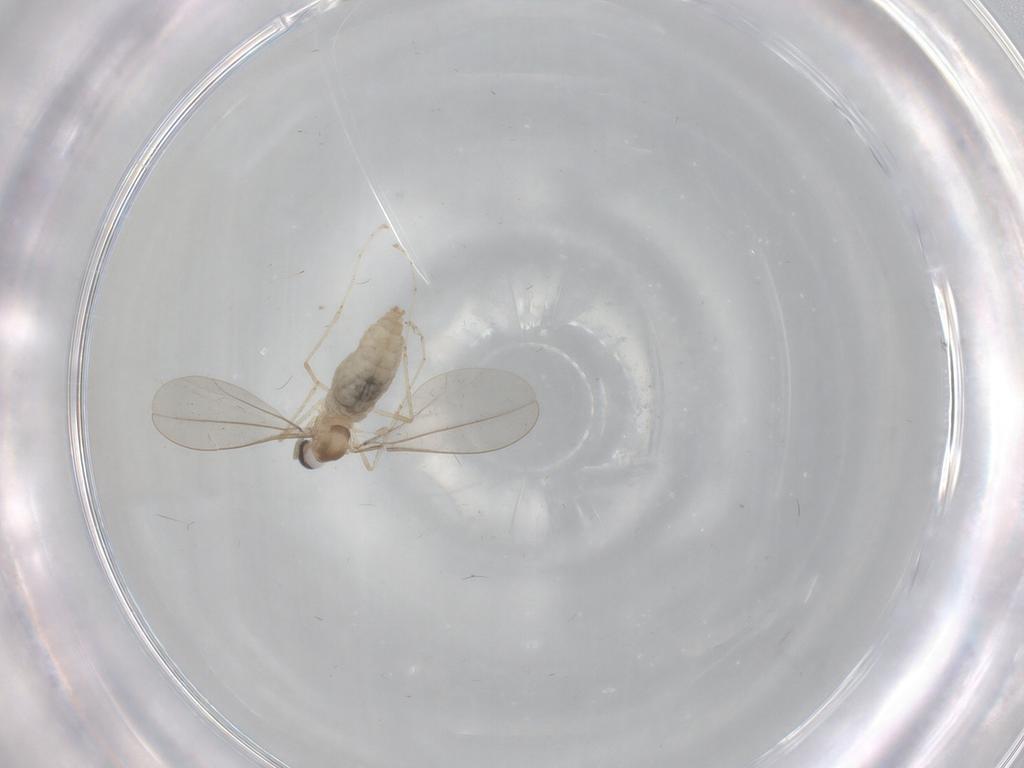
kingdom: Animalia
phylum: Arthropoda
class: Insecta
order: Diptera
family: Cecidomyiidae
